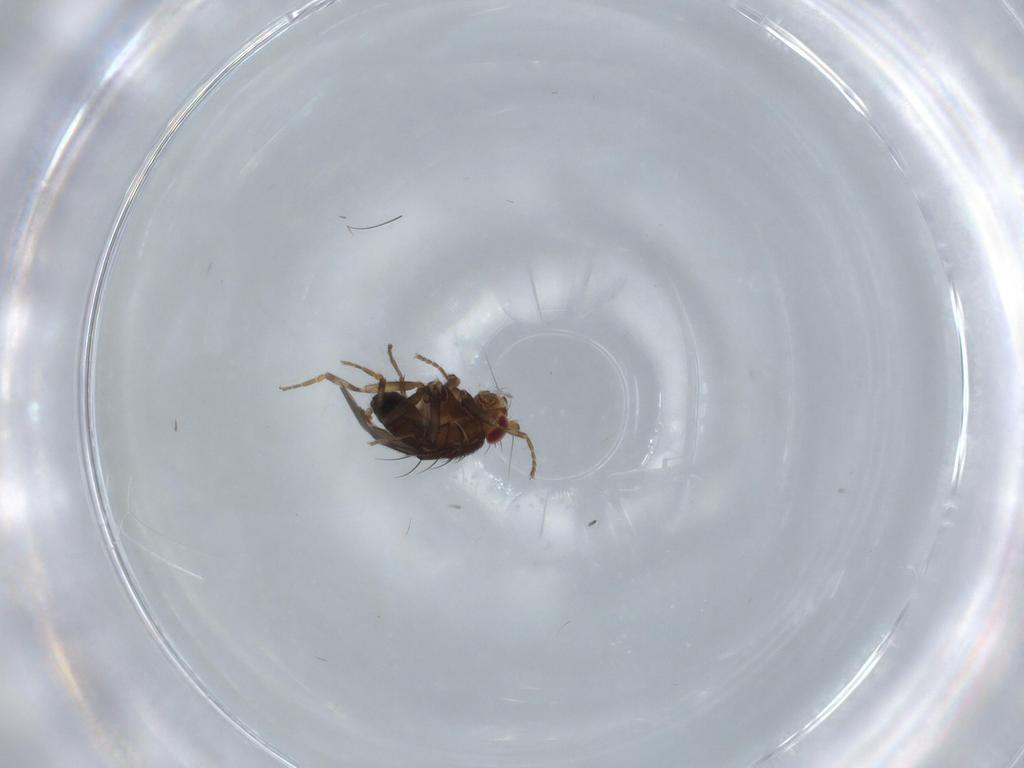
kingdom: Animalia
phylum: Arthropoda
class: Insecta
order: Diptera
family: Sphaeroceridae
